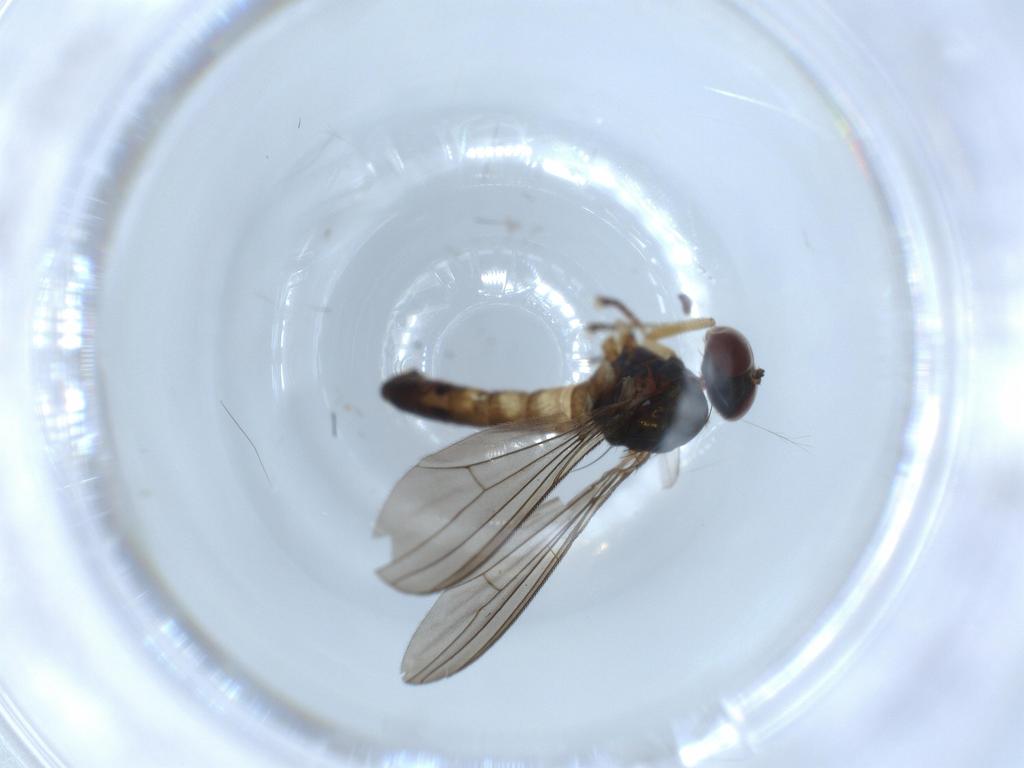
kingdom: Animalia
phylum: Arthropoda
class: Insecta
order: Diptera
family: Dolichopodidae
